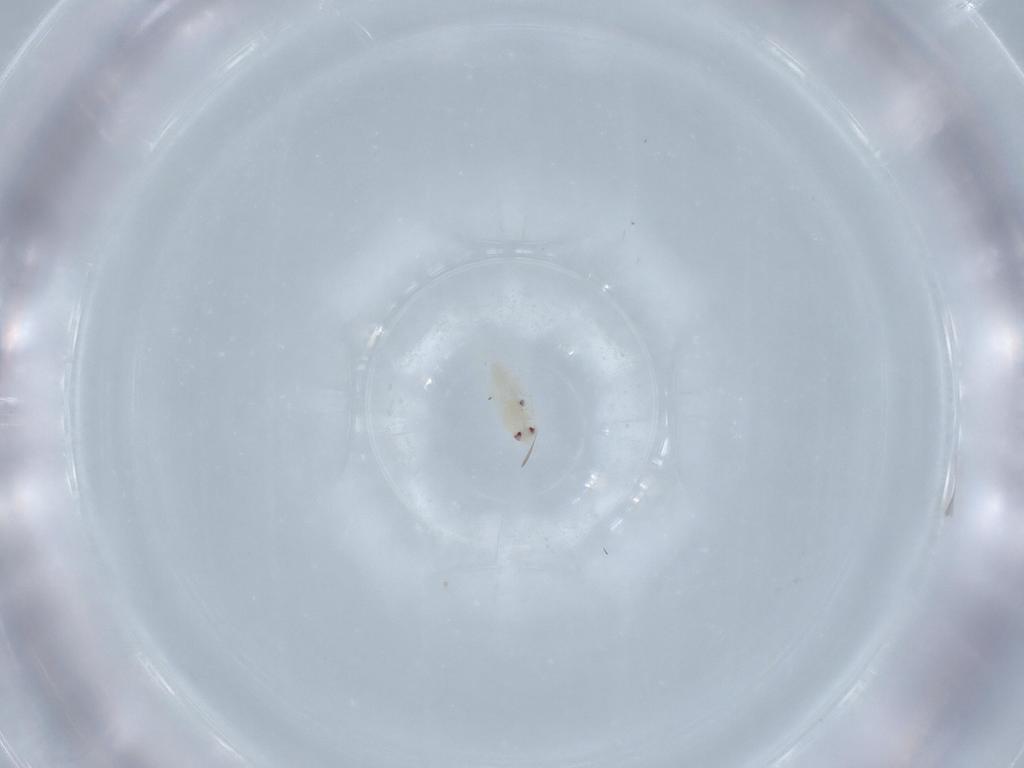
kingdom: Animalia
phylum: Arthropoda
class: Insecta
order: Hemiptera
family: Aleyrodidae
